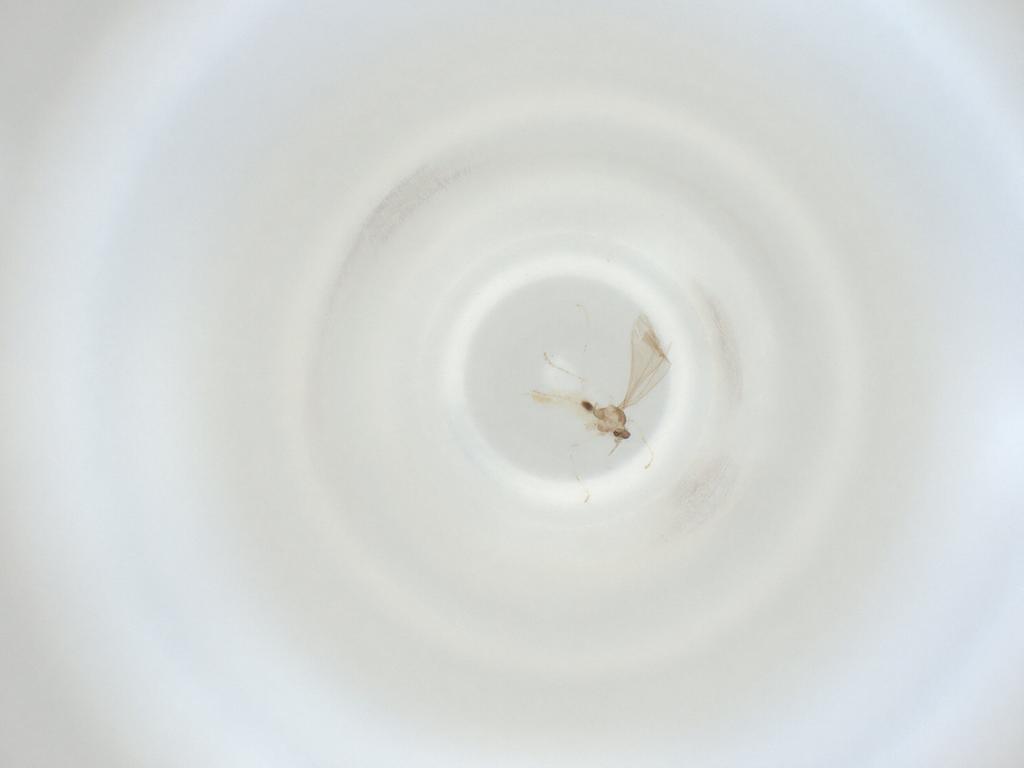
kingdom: Animalia
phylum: Arthropoda
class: Insecta
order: Diptera
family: Cecidomyiidae
